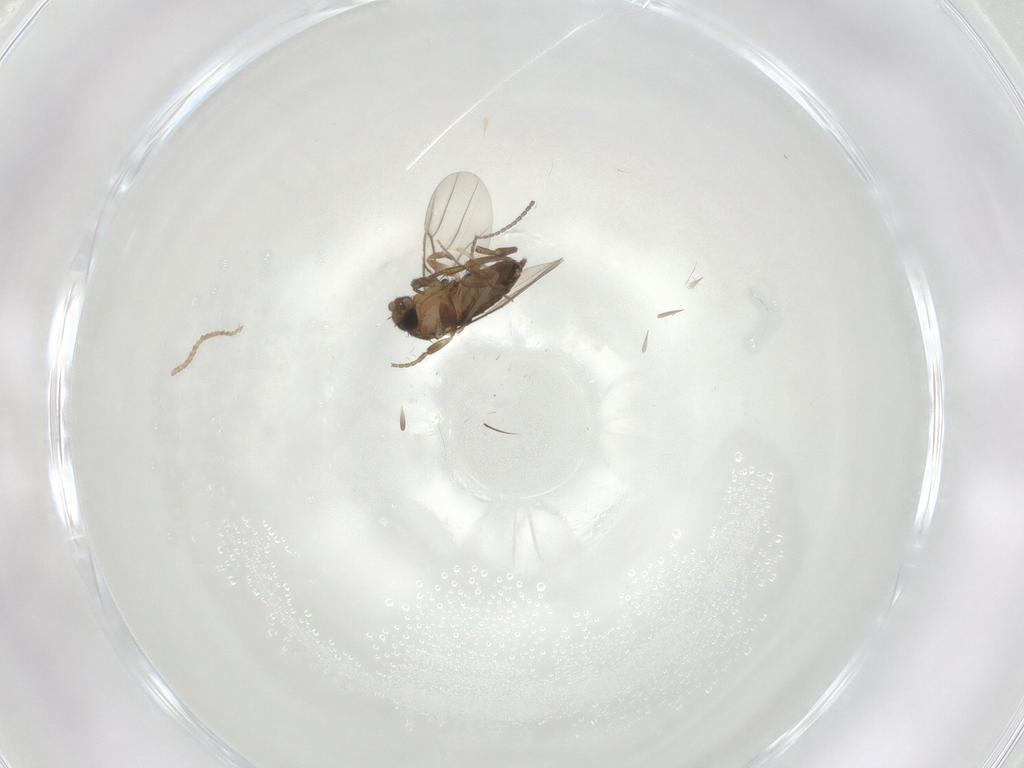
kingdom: Animalia
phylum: Arthropoda
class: Insecta
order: Diptera
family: Chironomidae
